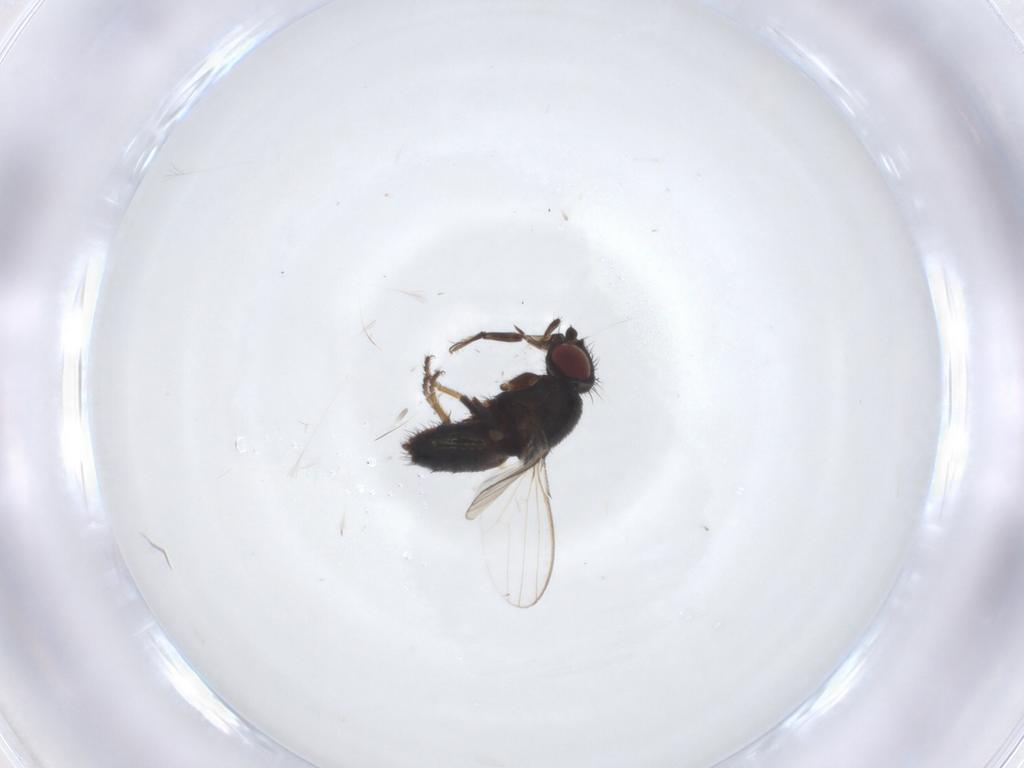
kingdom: Animalia
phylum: Arthropoda
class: Insecta
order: Diptera
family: Milichiidae
